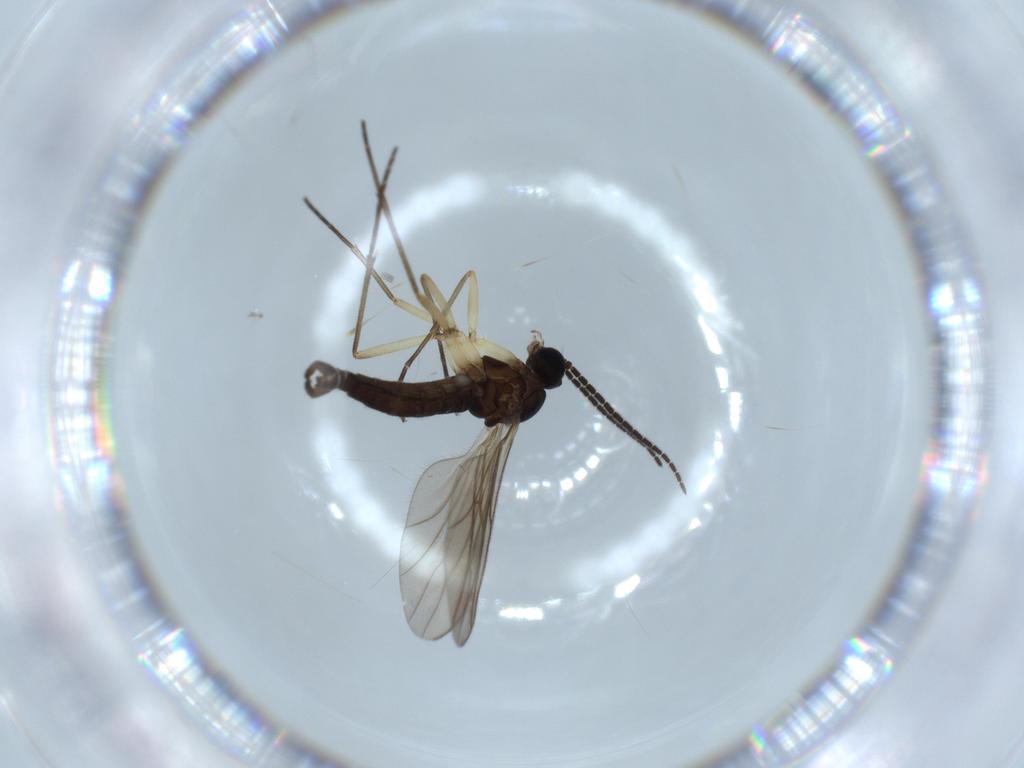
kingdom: Animalia
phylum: Arthropoda
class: Insecta
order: Diptera
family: Sciaridae
